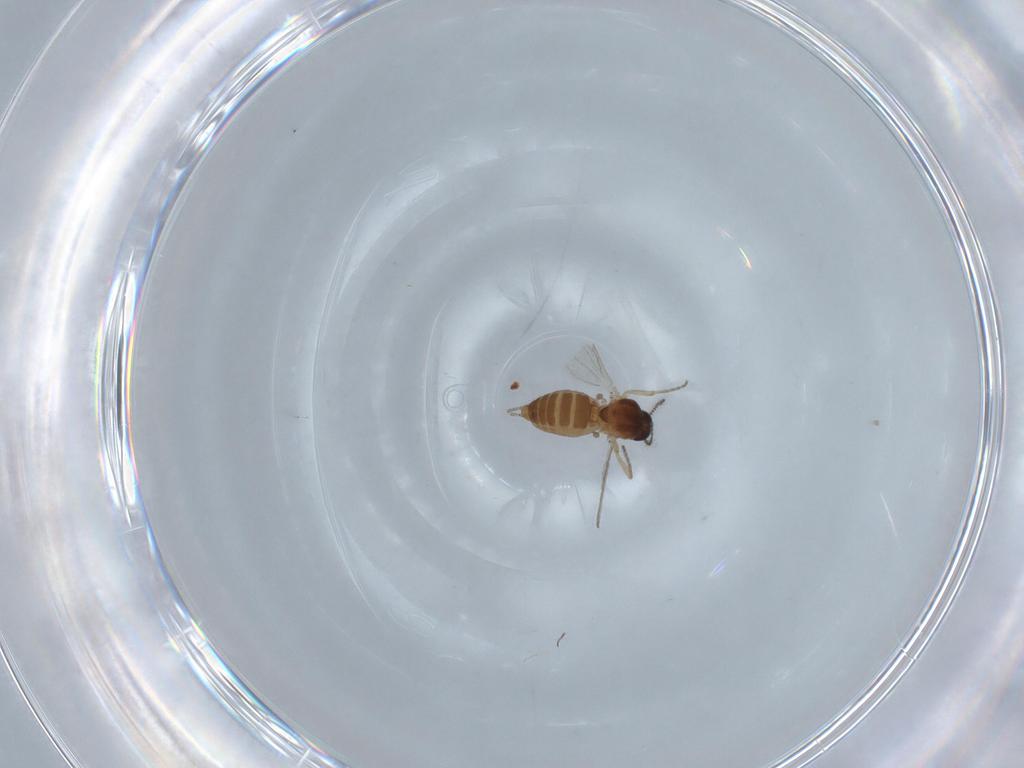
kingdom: Animalia
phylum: Arthropoda
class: Insecta
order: Diptera
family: Ceratopogonidae
